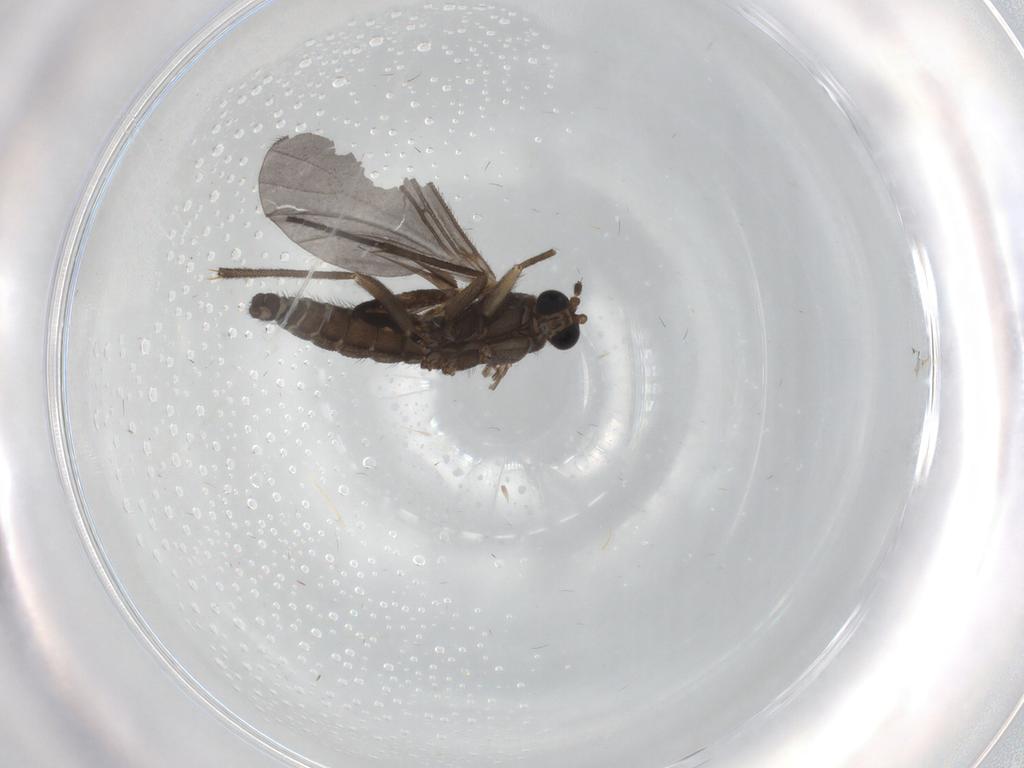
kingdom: Animalia
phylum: Arthropoda
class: Insecta
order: Diptera
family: Sciaridae
